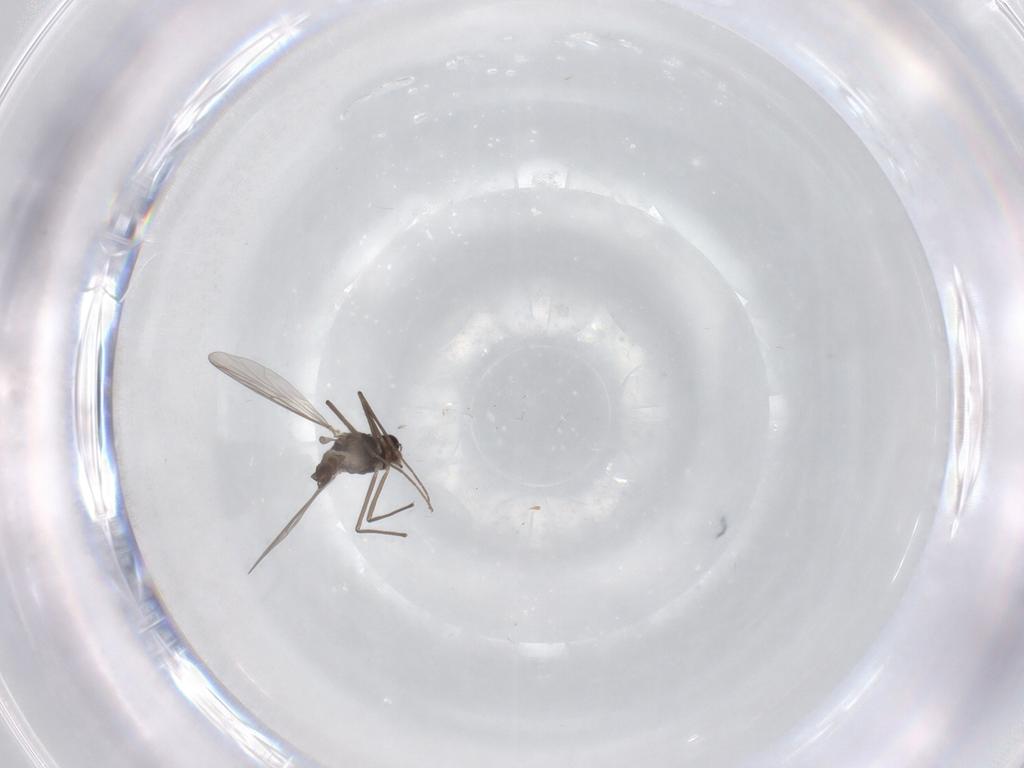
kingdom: Animalia
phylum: Arthropoda
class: Insecta
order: Diptera
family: Chironomidae
